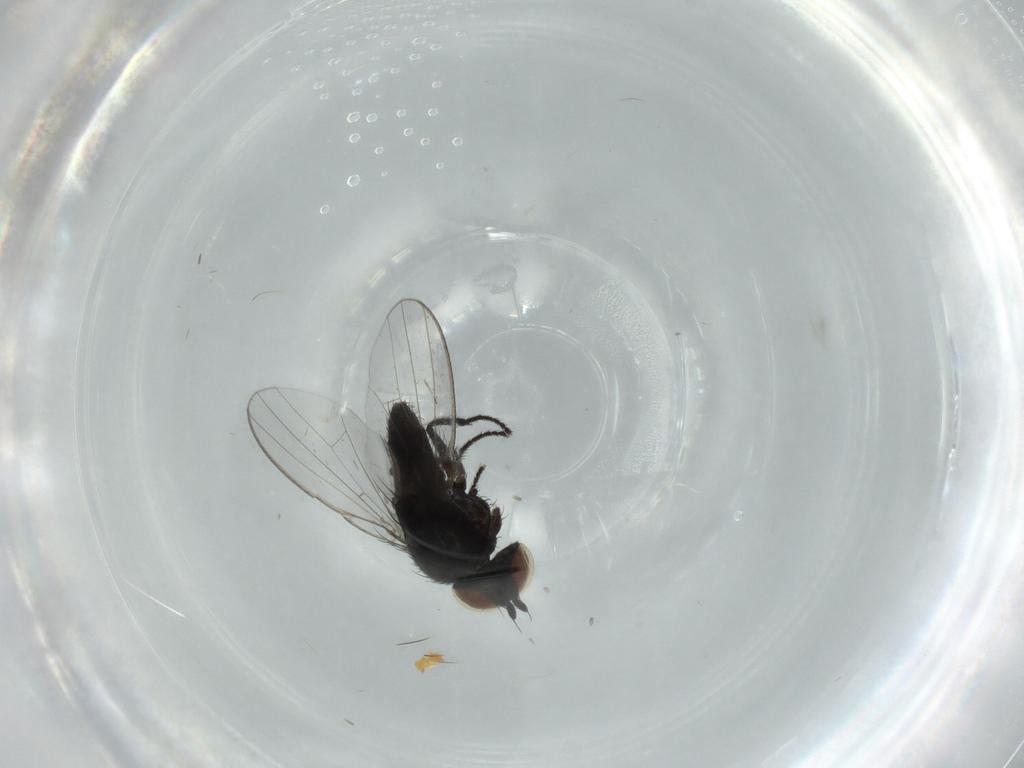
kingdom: Animalia
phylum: Arthropoda
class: Insecta
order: Diptera
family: Milichiidae
